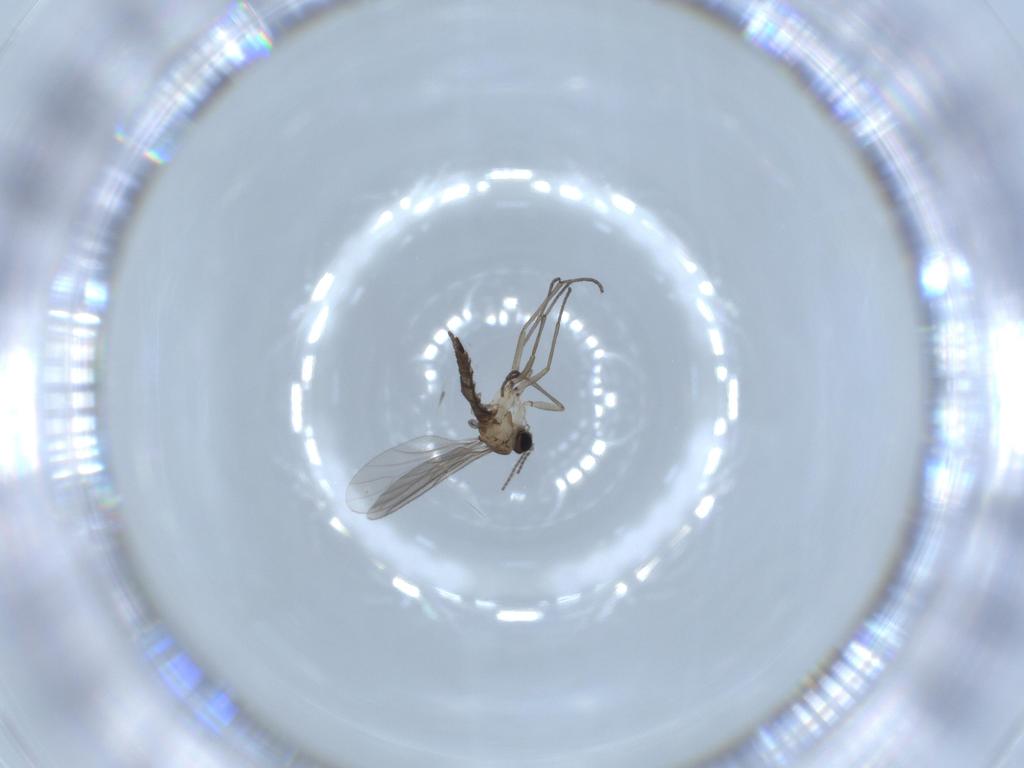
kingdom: Animalia
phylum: Arthropoda
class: Insecta
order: Diptera
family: Sciaridae
